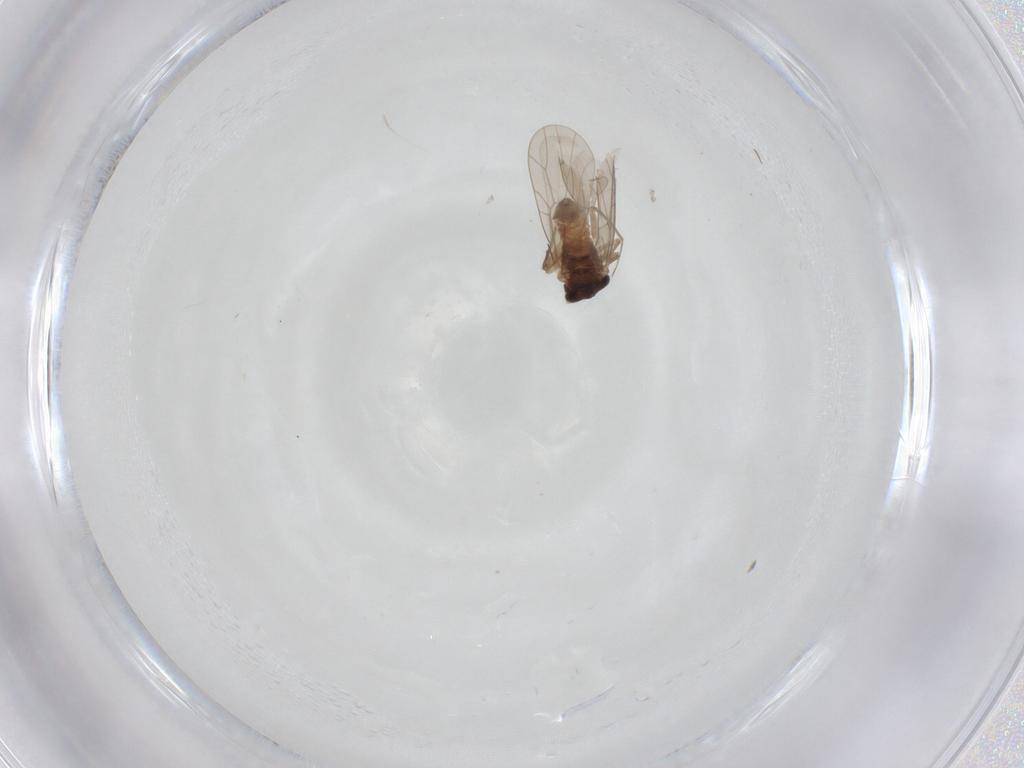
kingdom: Animalia
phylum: Arthropoda
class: Insecta
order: Psocodea
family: Lepidopsocidae
